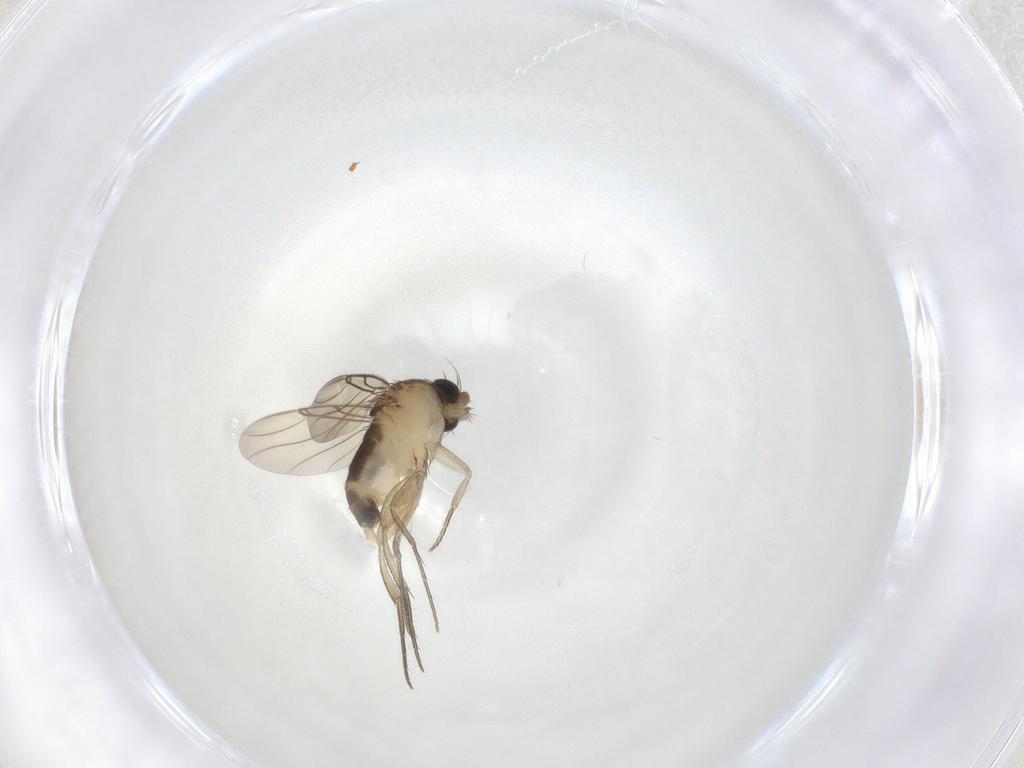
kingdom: Animalia
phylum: Arthropoda
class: Insecta
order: Diptera
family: Phoridae
